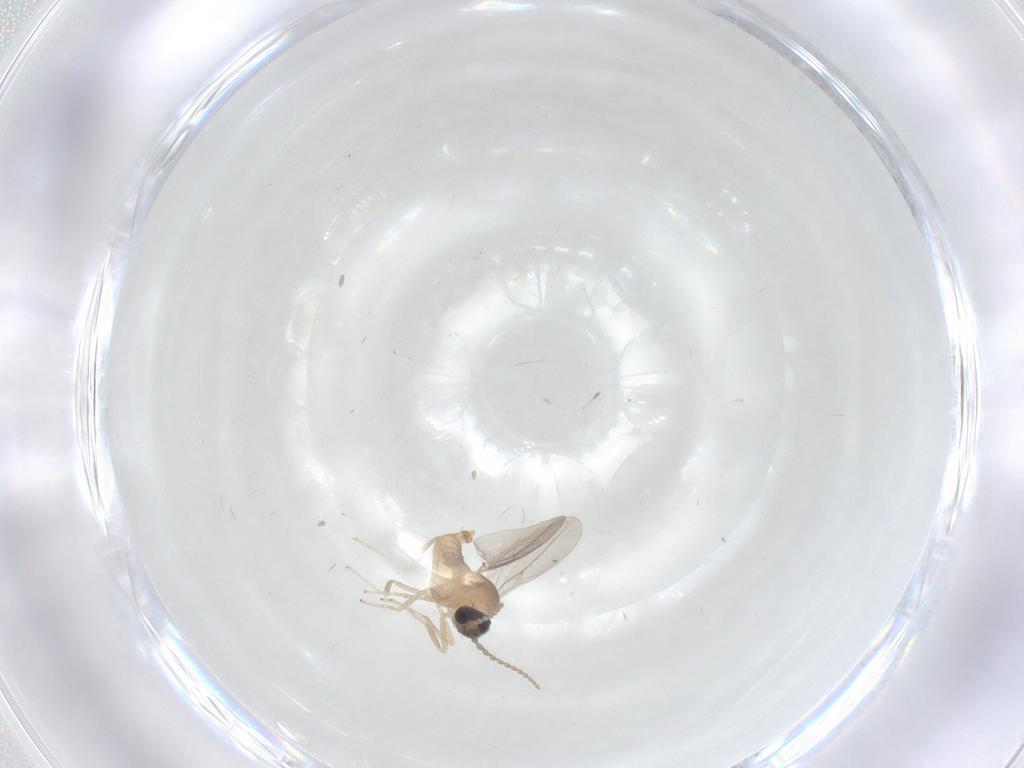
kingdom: Animalia
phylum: Arthropoda
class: Insecta
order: Diptera
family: Cecidomyiidae
